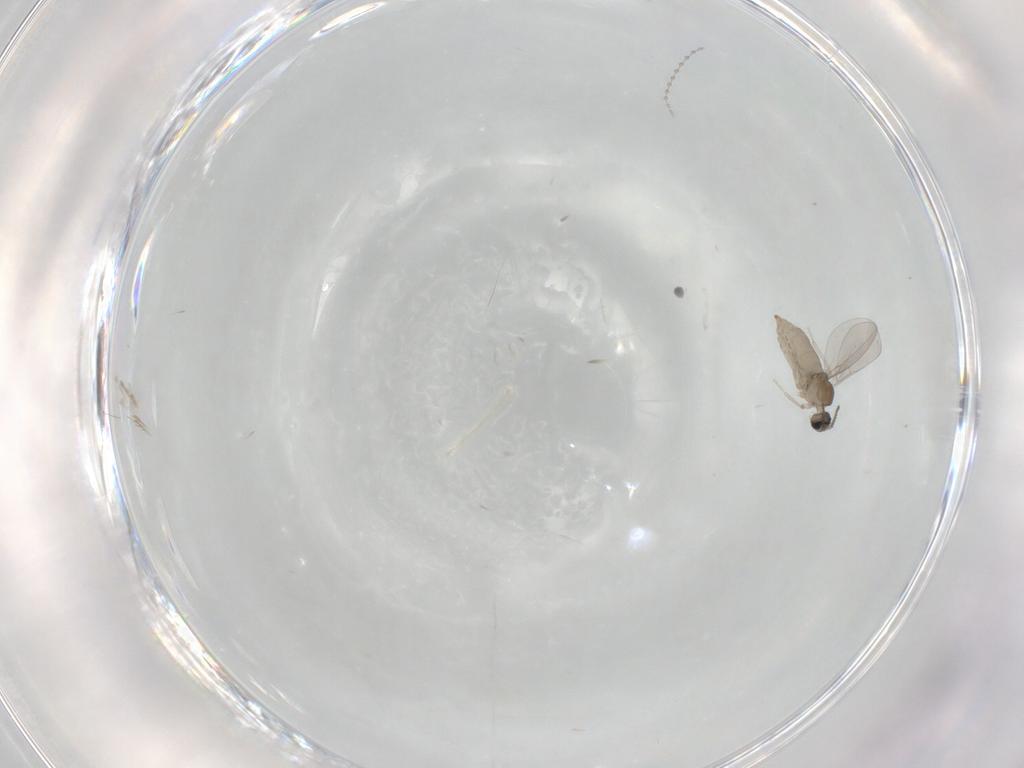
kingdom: Animalia
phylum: Arthropoda
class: Insecta
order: Diptera
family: Cecidomyiidae
